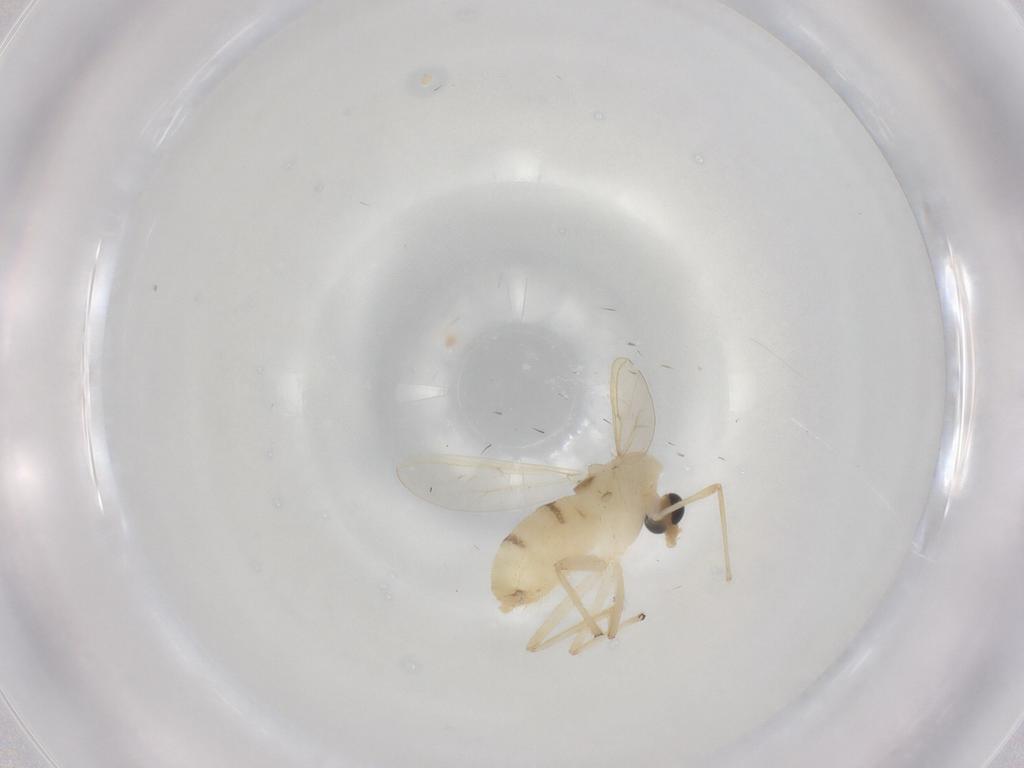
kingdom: Animalia
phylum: Arthropoda
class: Insecta
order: Diptera
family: Chironomidae
